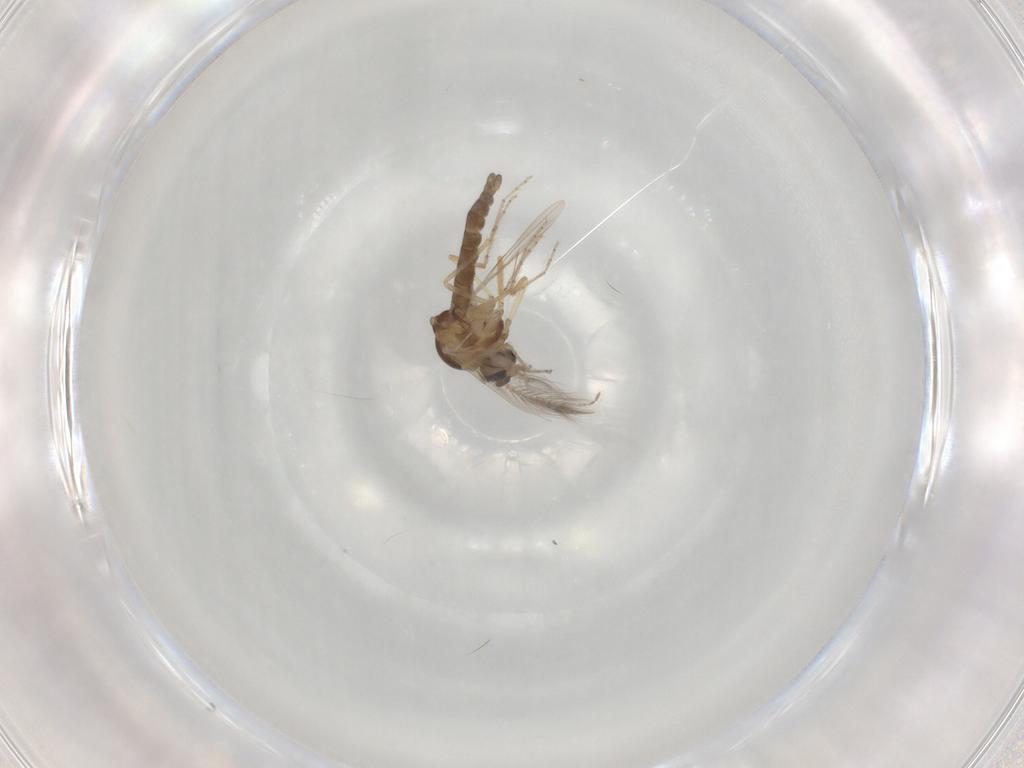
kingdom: Animalia
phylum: Arthropoda
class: Insecta
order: Diptera
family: Ceratopogonidae
